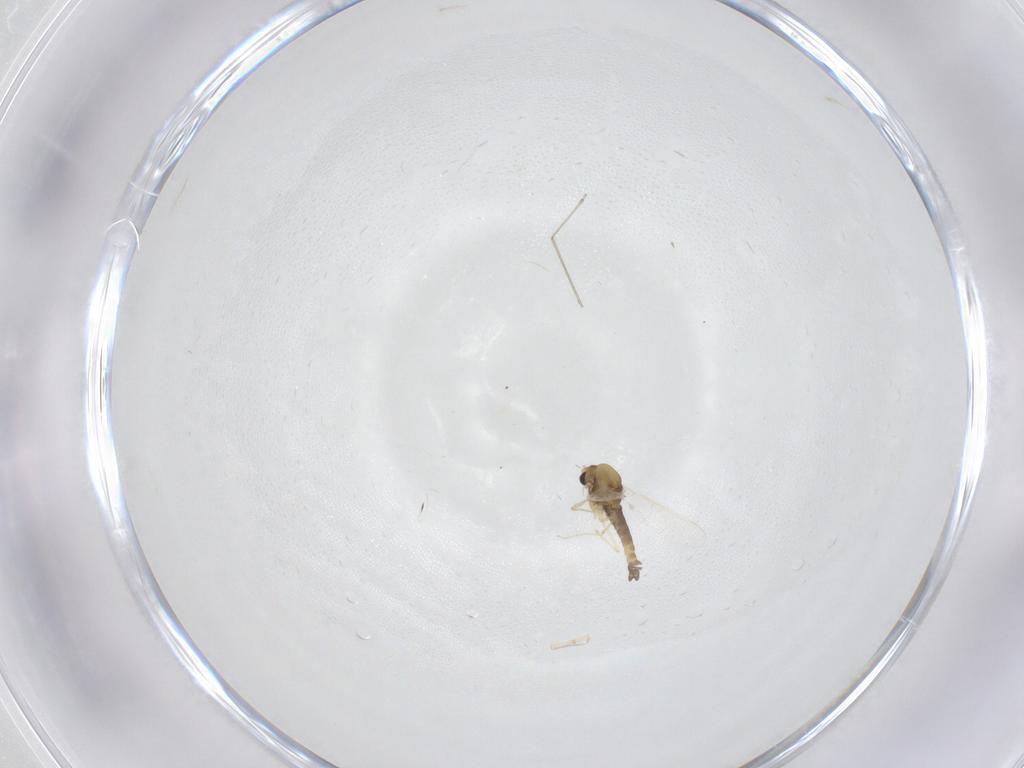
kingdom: Animalia
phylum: Arthropoda
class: Insecta
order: Diptera
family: Chironomidae
